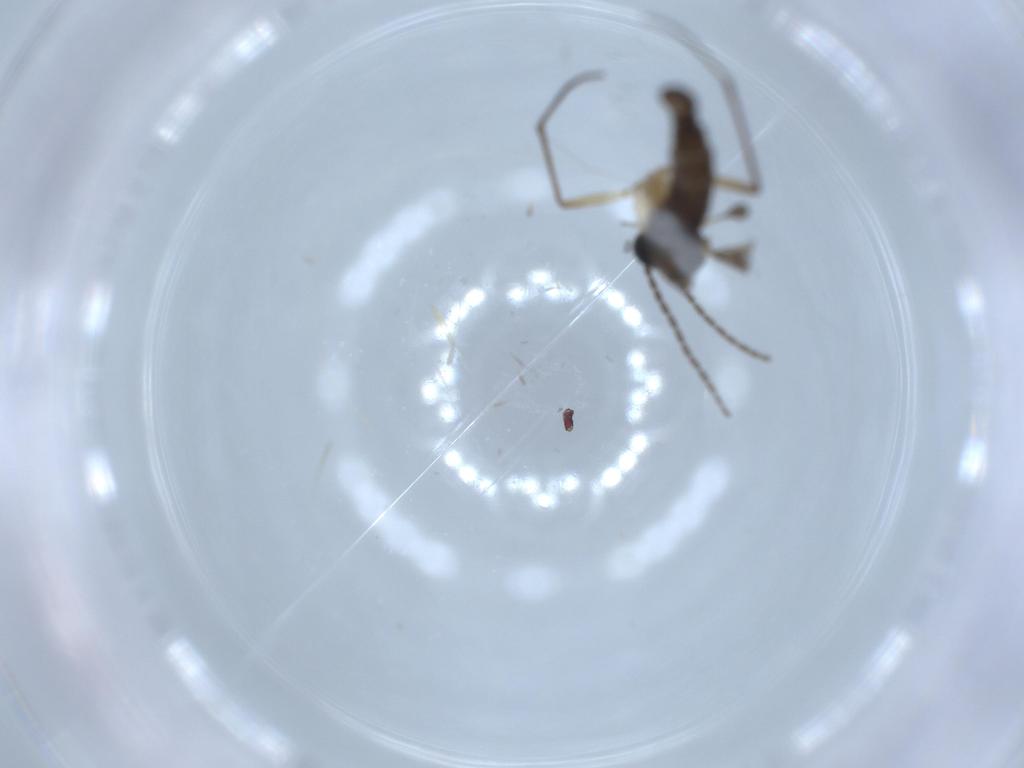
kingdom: Animalia
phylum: Arthropoda
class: Insecta
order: Diptera
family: Sciaridae
